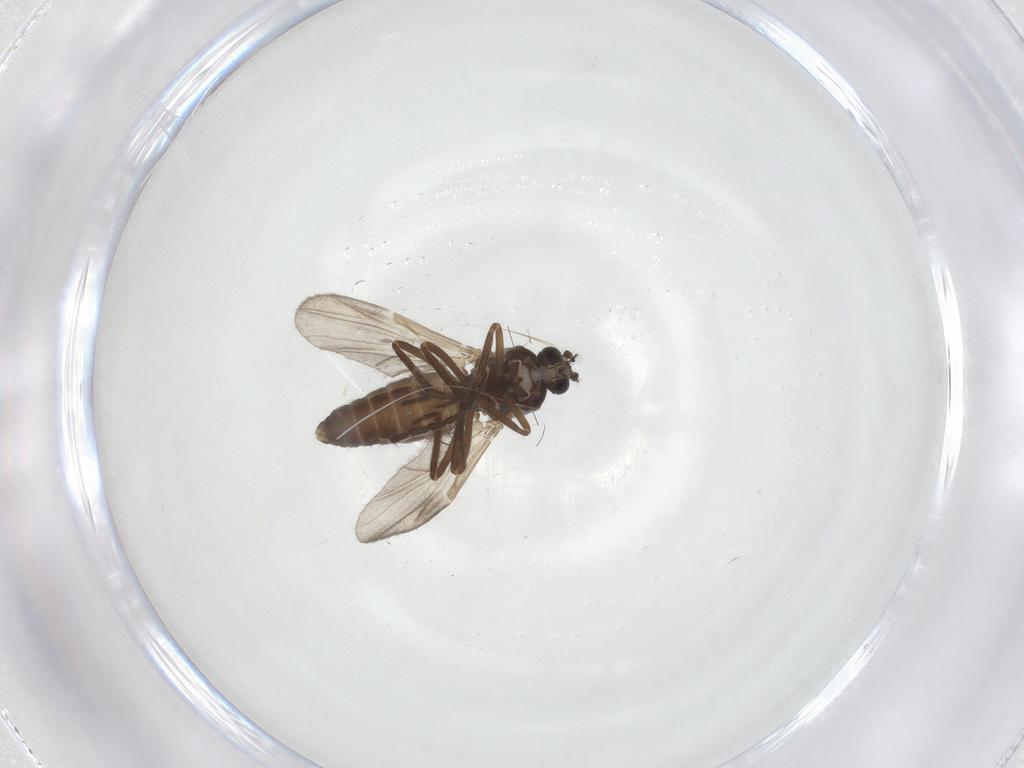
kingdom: Animalia
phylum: Arthropoda
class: Insecta
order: Diptera
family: Ceratopogonidae
